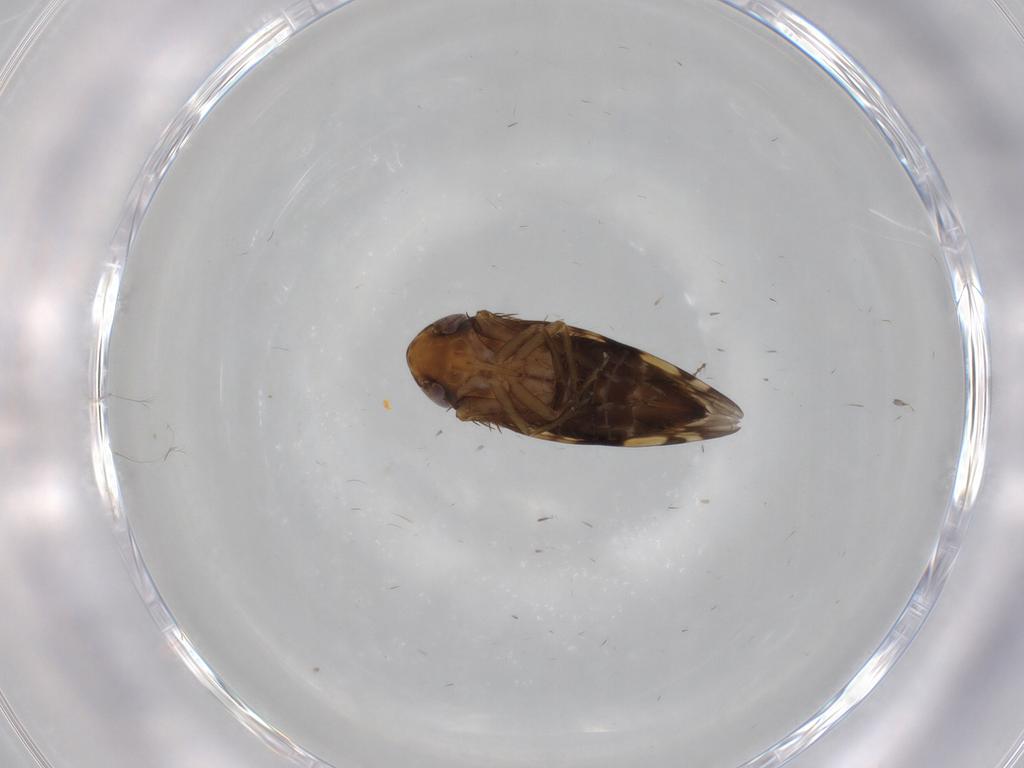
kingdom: Animalia
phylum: Arthropoda
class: Insecta
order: Hemiptera
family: Cicadellidae
